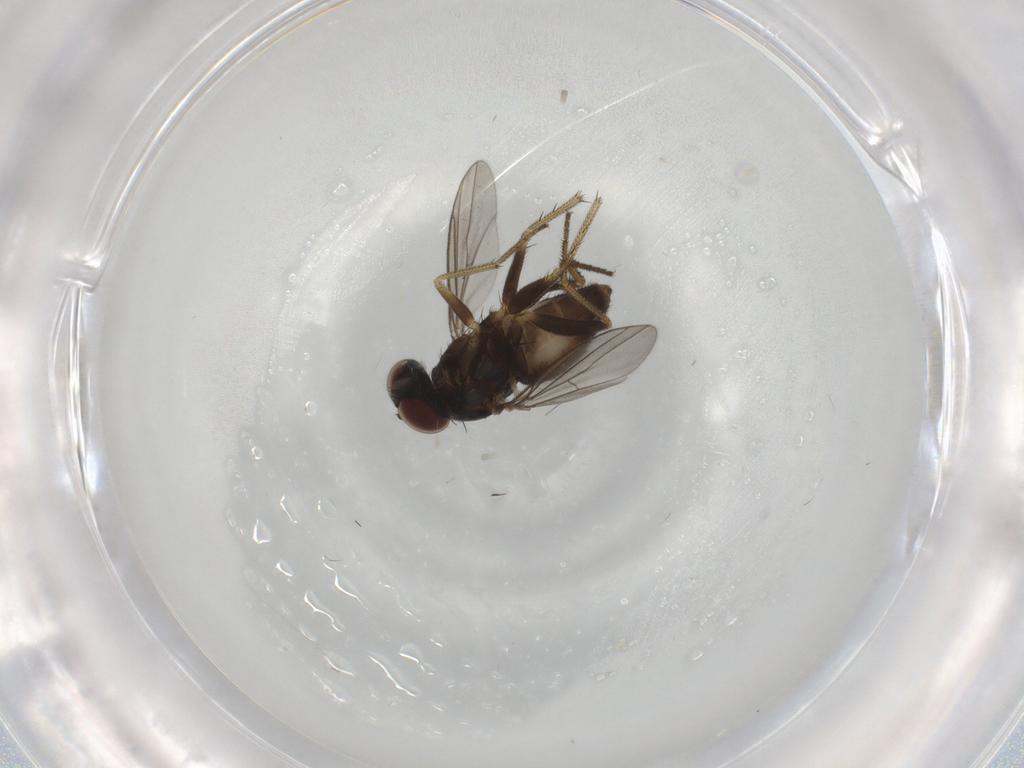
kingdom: Animalia
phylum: Arthropoda
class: Insecta
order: Diptera
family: Dolichopodidae
